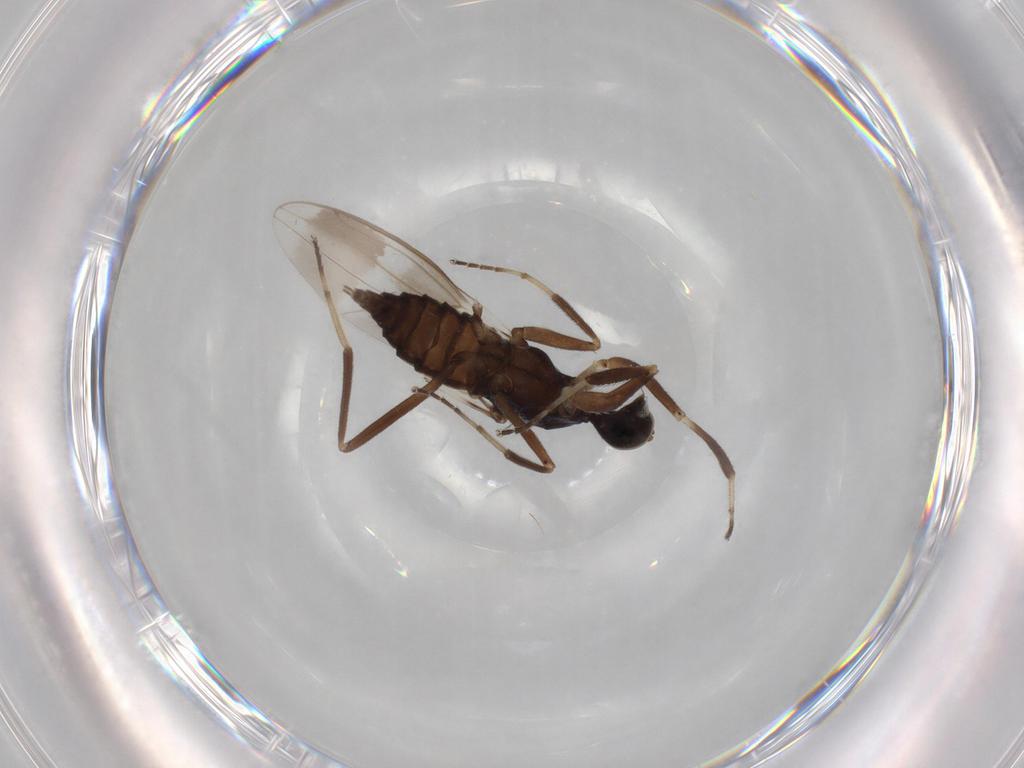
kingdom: Animalia
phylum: Arthropoda
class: Insecta
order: Diptera
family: Hybotidae
